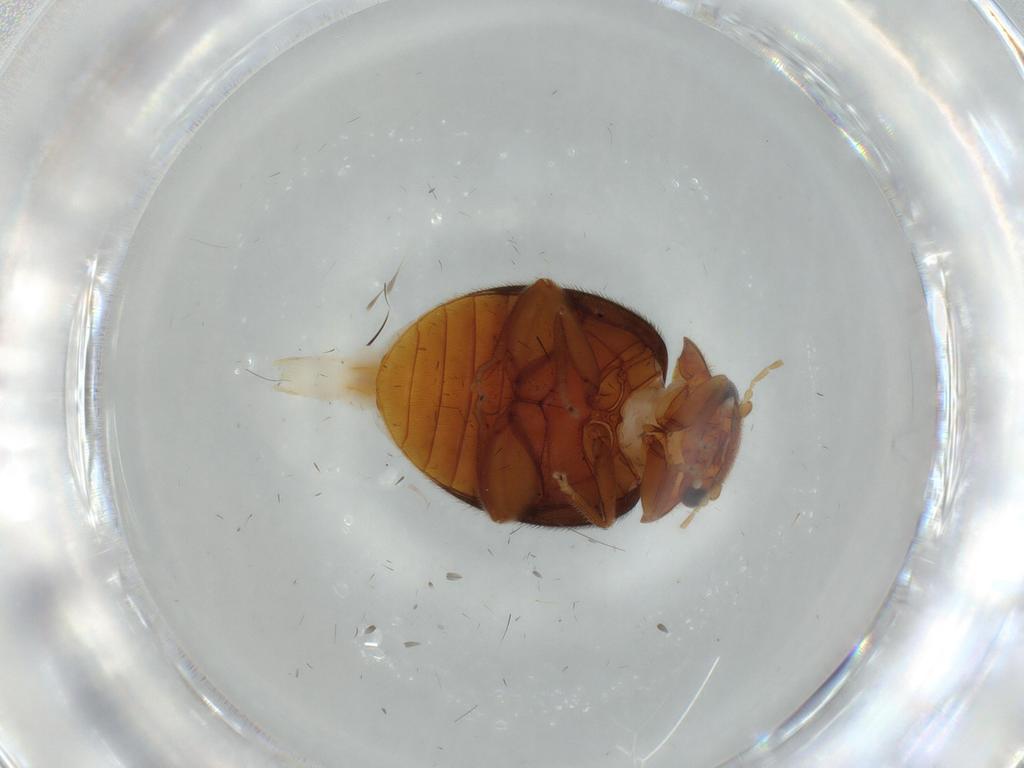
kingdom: Animalia
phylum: Arthropoda
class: Insecta
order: Coleoptera
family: Scirtidae
